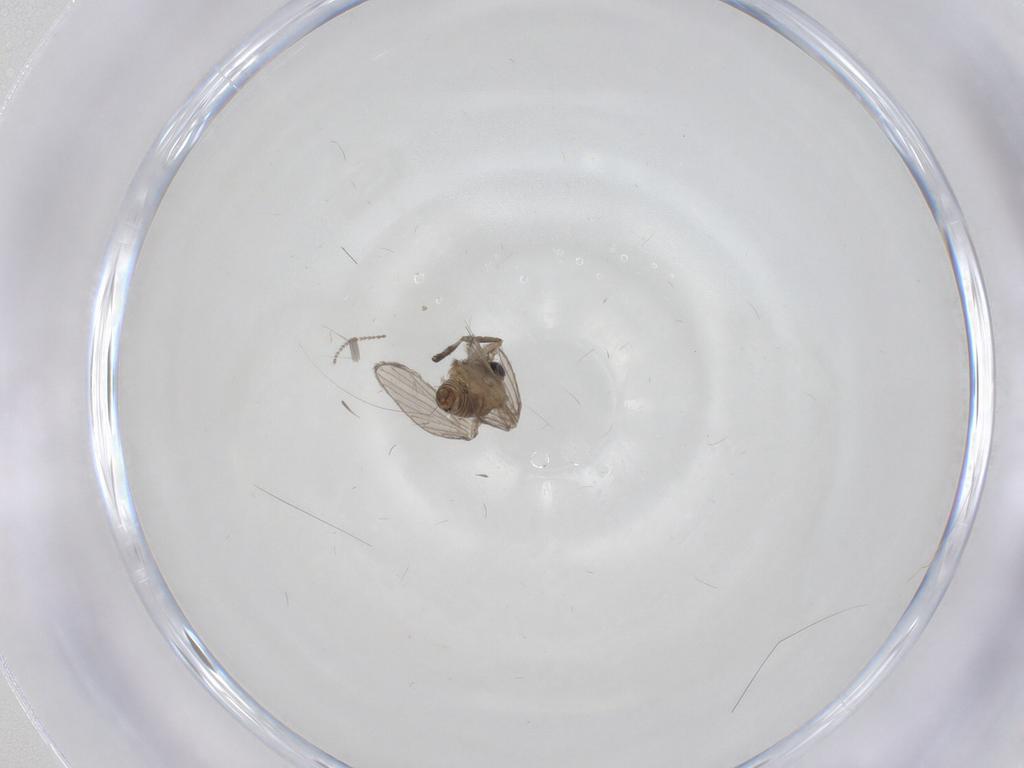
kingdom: Animalia
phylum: Arthropoda
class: Insecta
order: Diptera
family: Psychodidae
